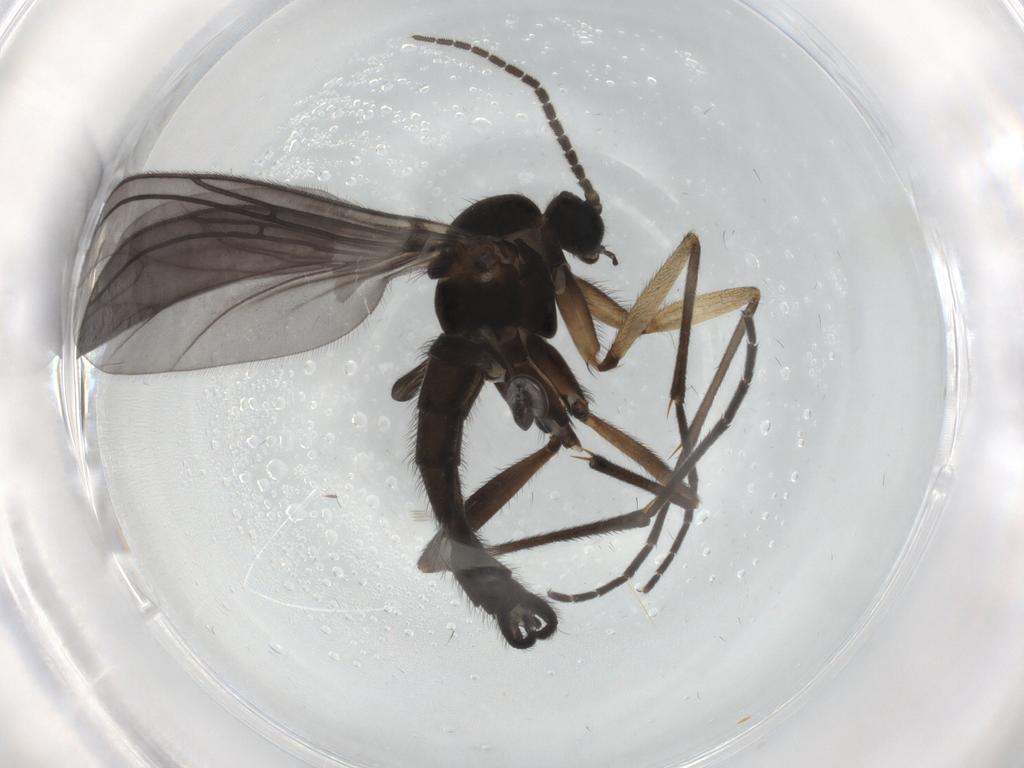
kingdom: Animalia
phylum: Arthropoda
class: Insecta
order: Diptera
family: Sciaridae
